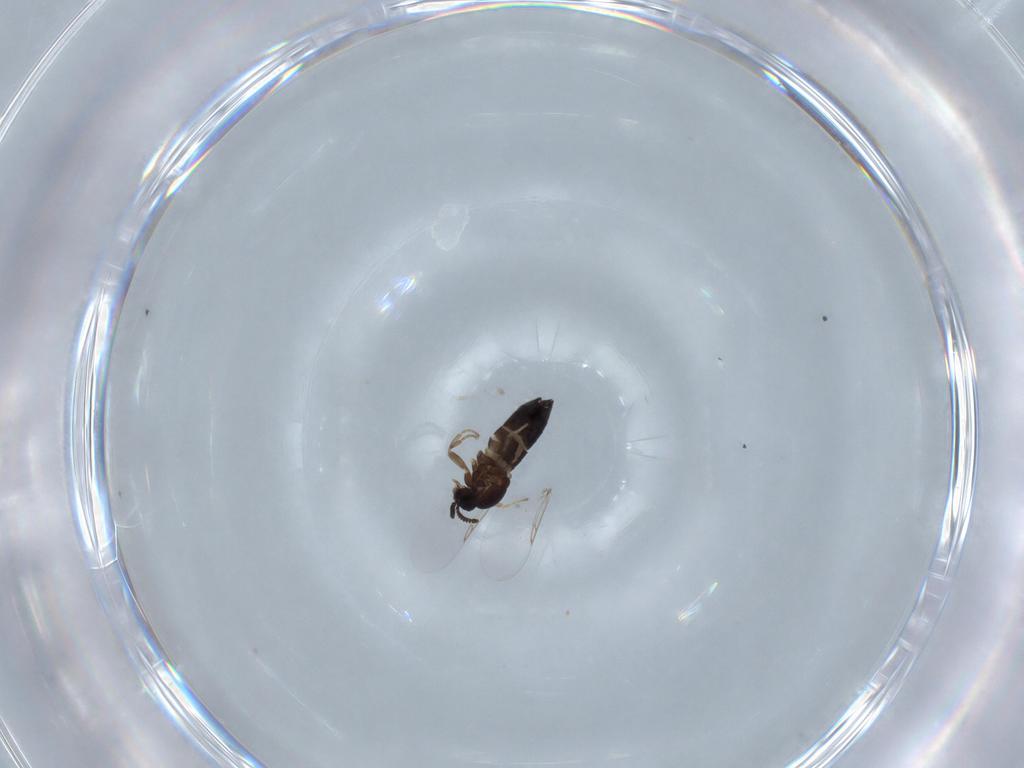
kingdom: Animalia
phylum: Arthropoda
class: Insecta
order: Diptera
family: Scatopsidae
